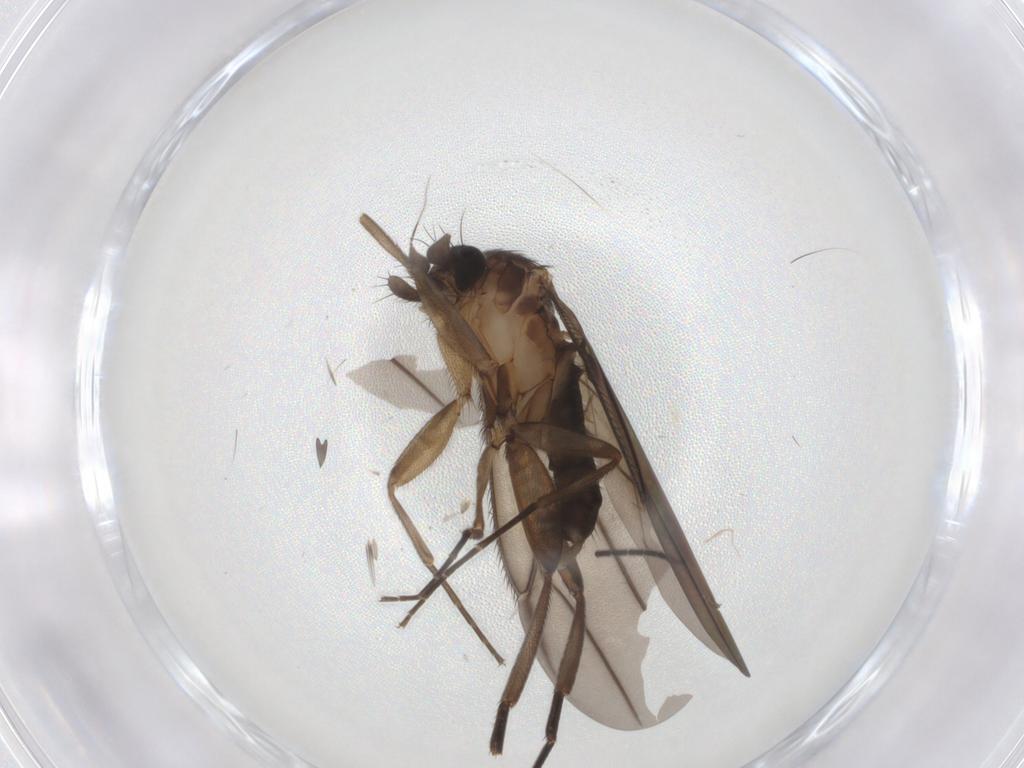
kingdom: Animalia
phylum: Arthropoda
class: Insecta
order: Diptera
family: Phoridae
